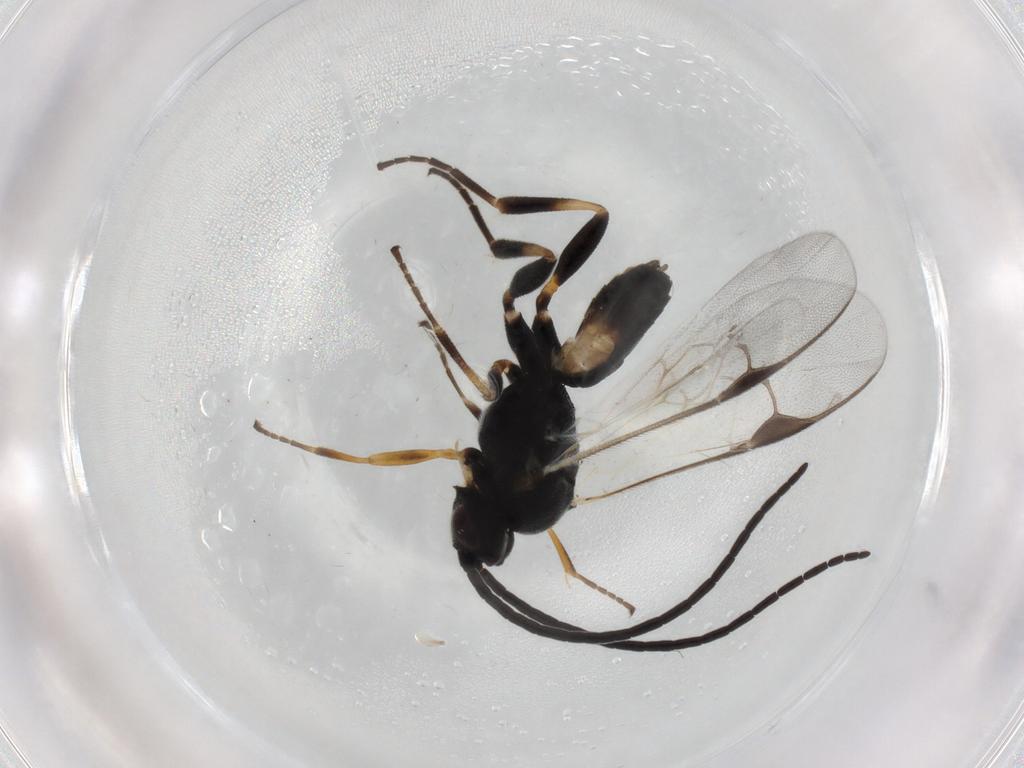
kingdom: Animalia
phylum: Arthropoda
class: Insecta
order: Hymenoptera
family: Braconidae
